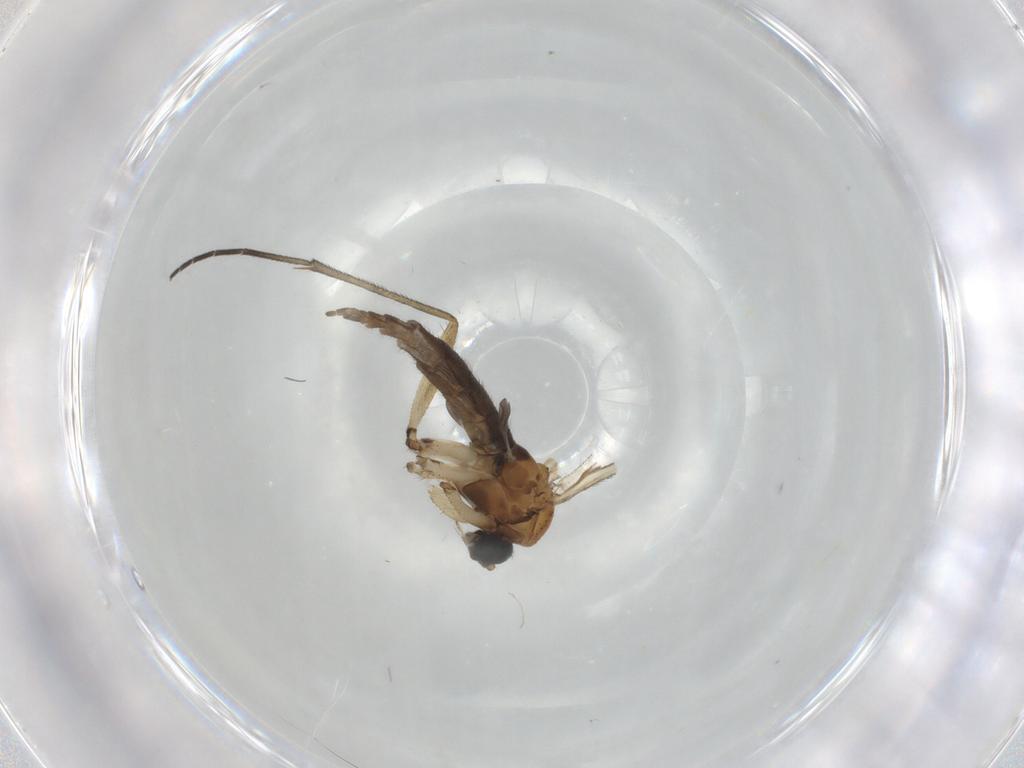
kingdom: Animalia
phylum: Arthropoda
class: Insecta
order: Diptera
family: Sciaridae
